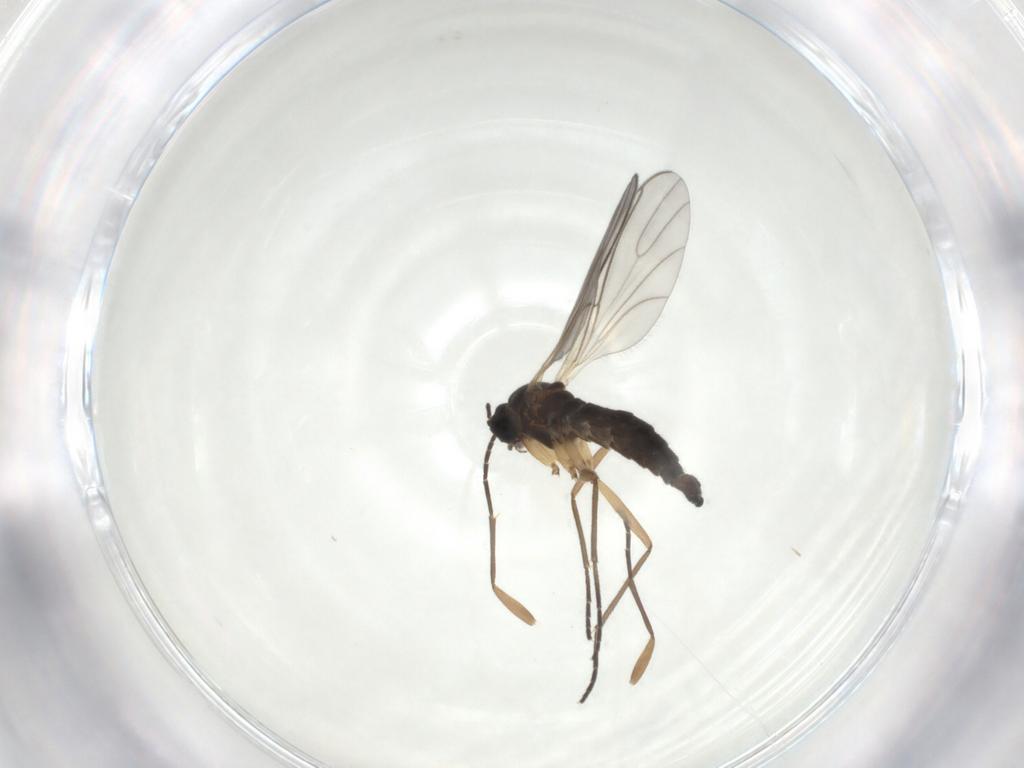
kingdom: Animalia
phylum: Arthropoda
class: Insecta
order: Diptera
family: Sciaridae
